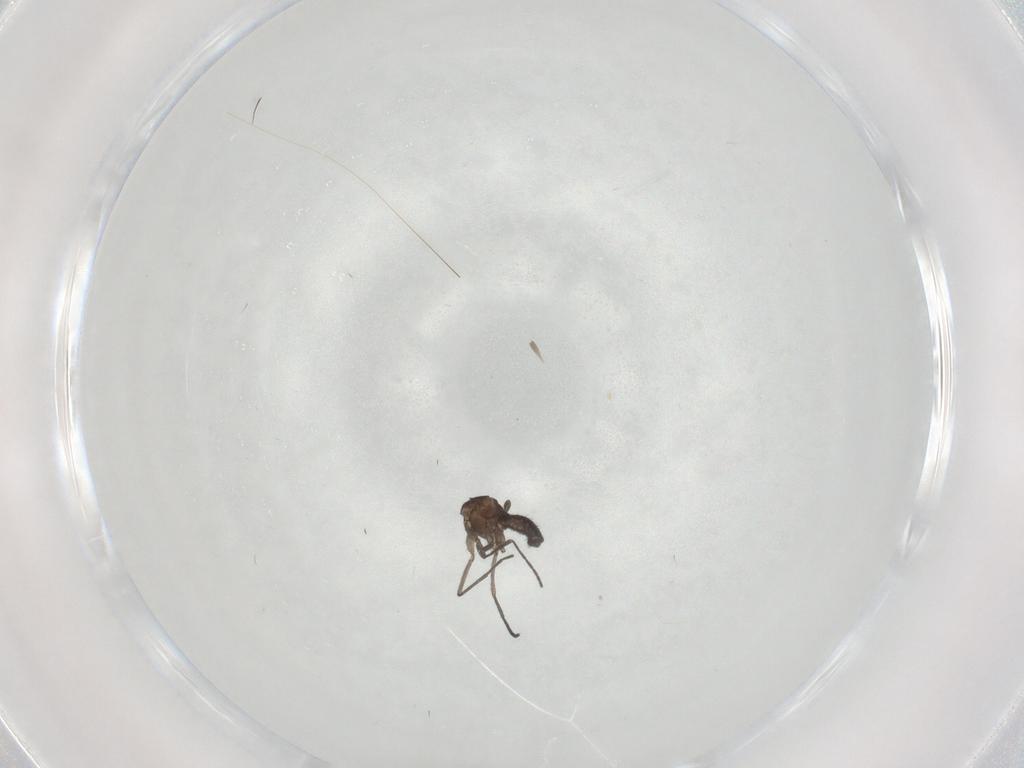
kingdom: Animalia
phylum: Arthropoda
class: Insecta
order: Diptera
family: Sciaridae
